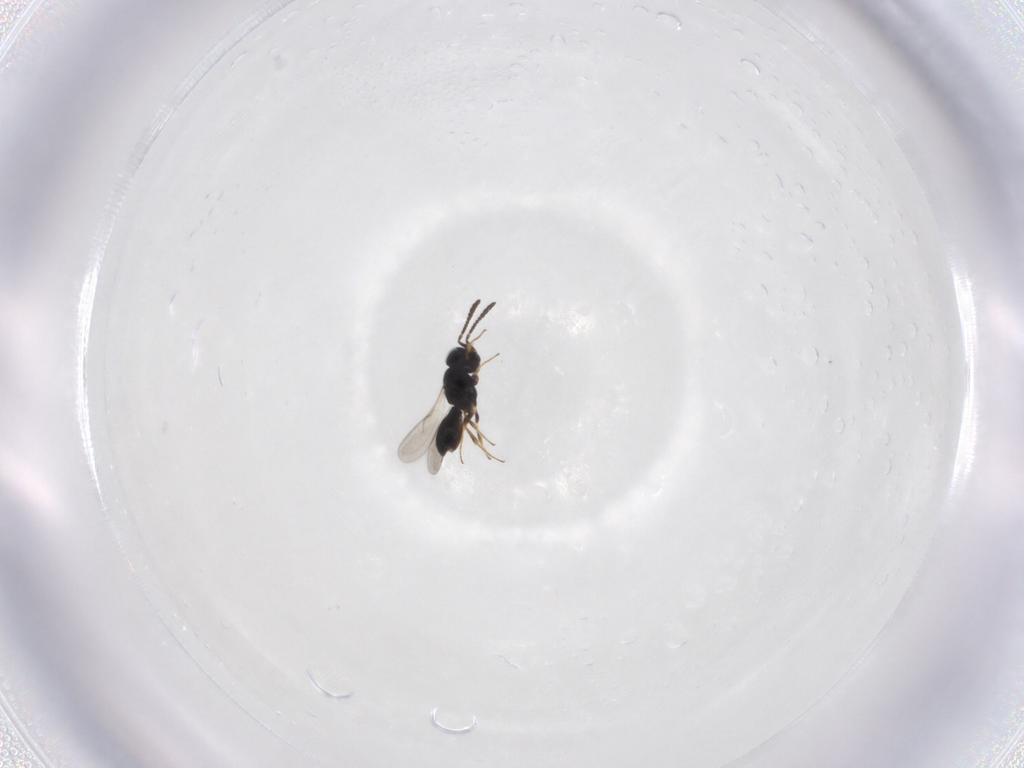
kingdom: Animalia
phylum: Arthropoda
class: Insecta
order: Hymenoptera
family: Scelionidae
